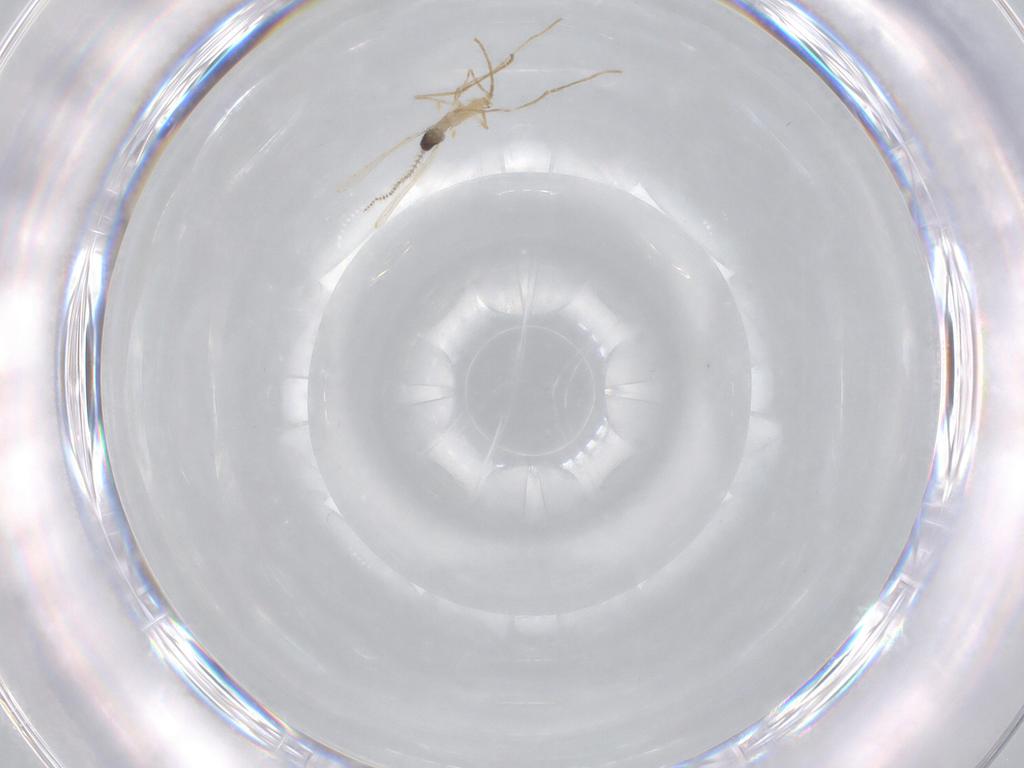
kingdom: Animalia
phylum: Arthropoda
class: Insecta
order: Diptera
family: Cecidomyiidae
